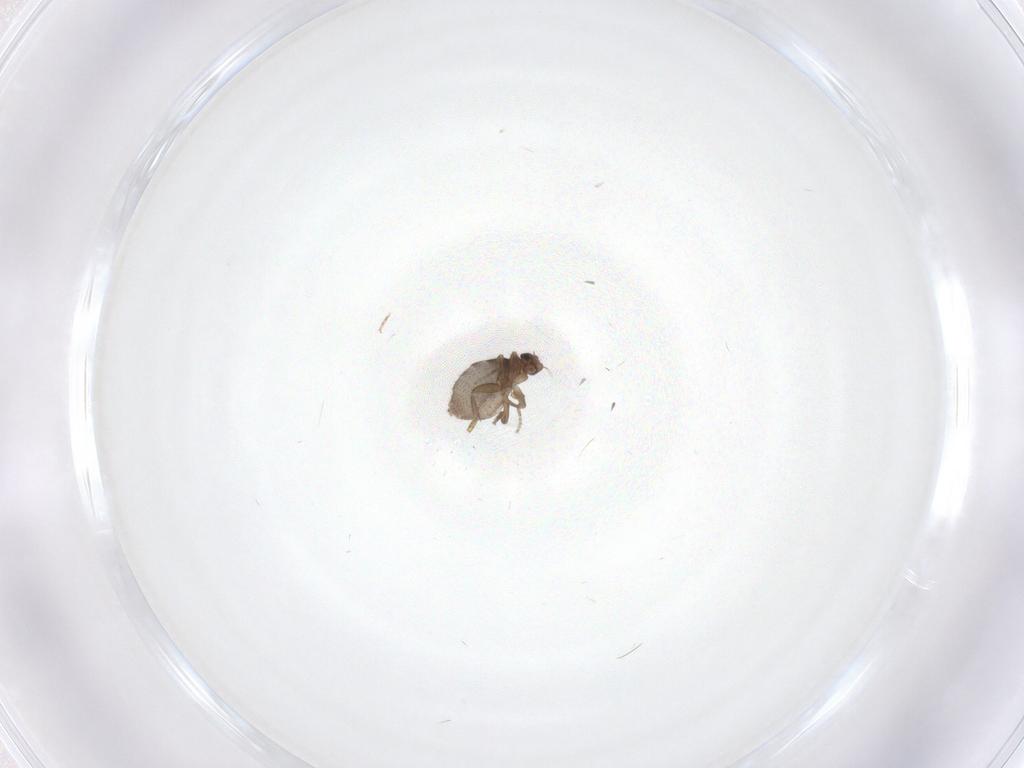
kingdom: Animalia
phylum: Arthropoda
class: Insecta
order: Diptera
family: Phoridae
